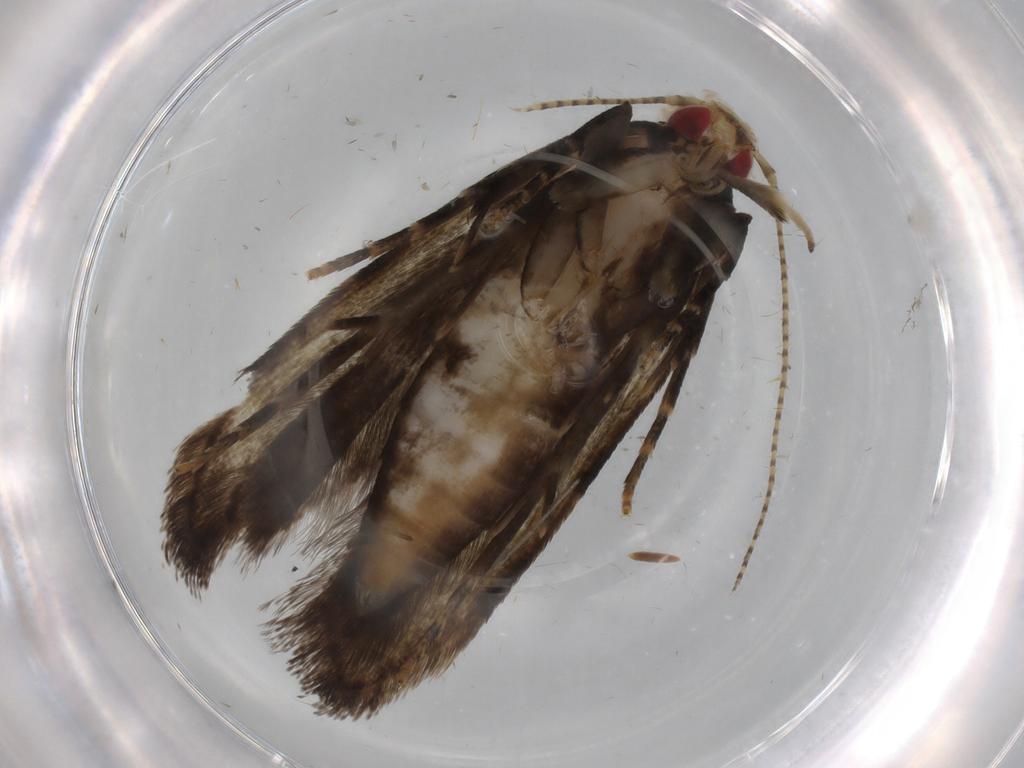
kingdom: Animalia
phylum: Arthropoda
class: Insecta
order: Lepidoptera
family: Gelechiidae
